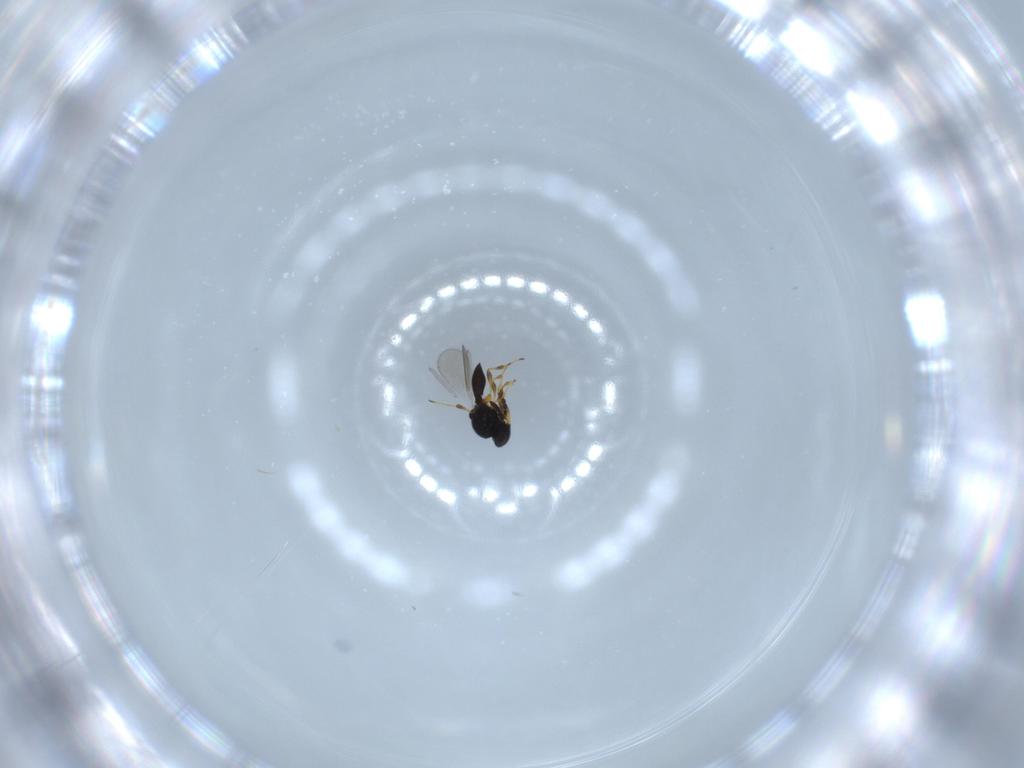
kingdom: Animalia
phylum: Arthropoda
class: Insecta
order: Hymenoptera
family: Platygastridae
